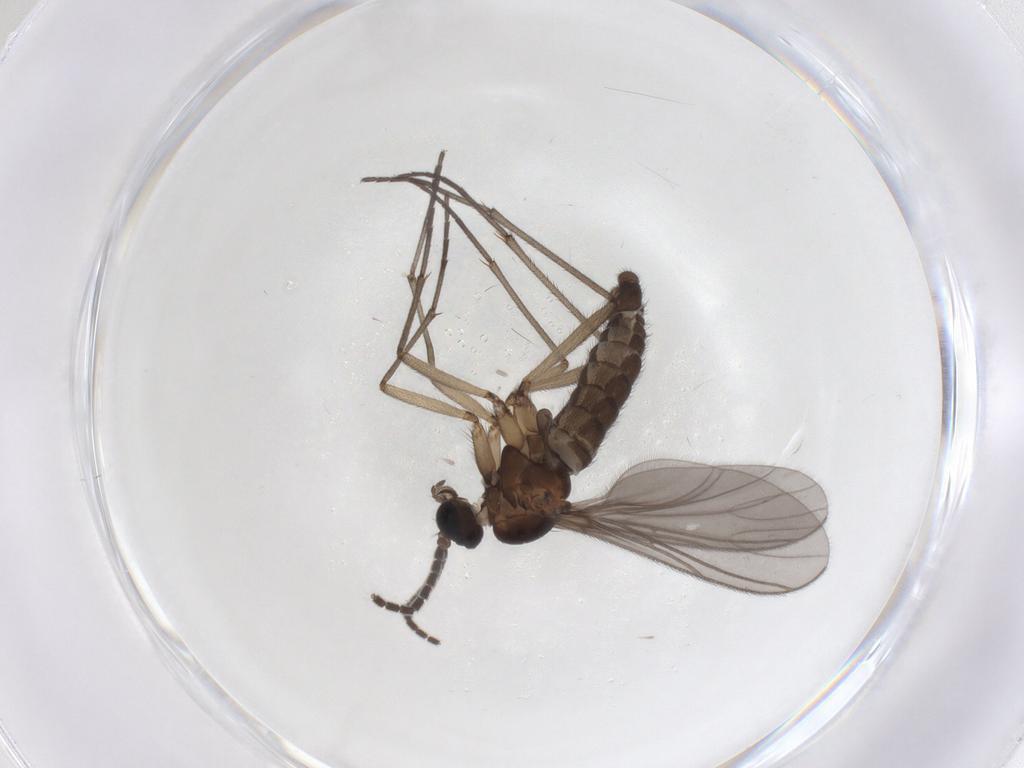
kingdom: Animalia
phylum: Arthropoda
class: Insecta
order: Diptera
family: Sciaridae
